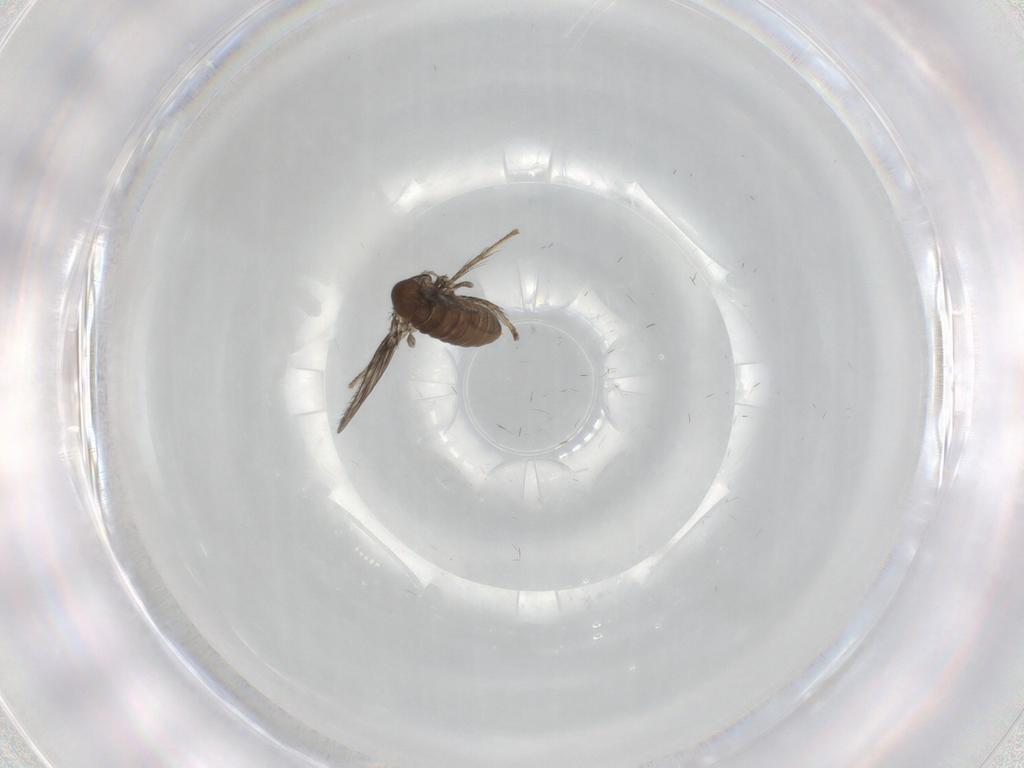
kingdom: Animalia
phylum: Arthropoda
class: Insecta
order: Diptera
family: Psychodidae
